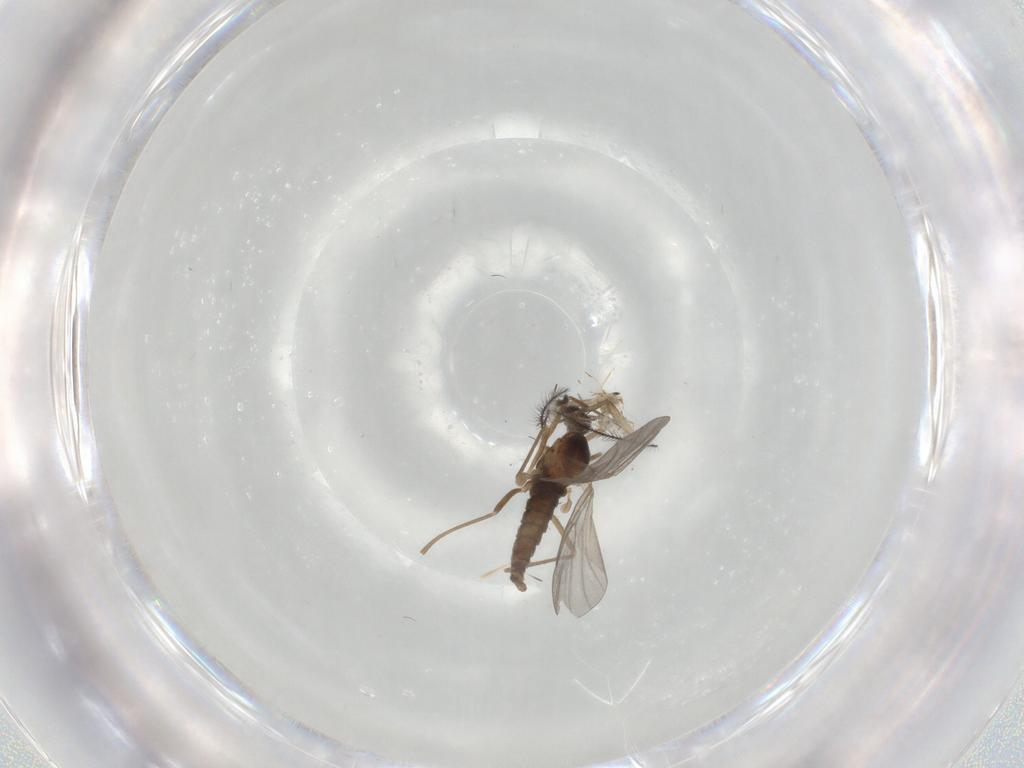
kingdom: Animalia
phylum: Arthropoda
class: Insecta
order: Diptera
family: Cecidomyiidae
